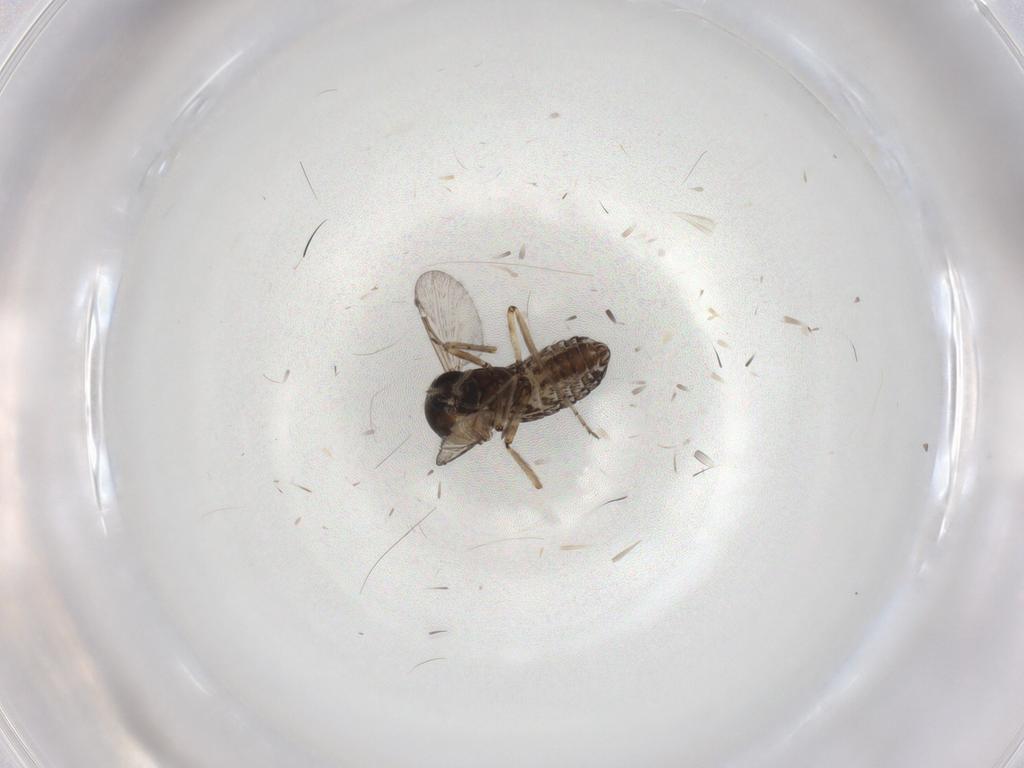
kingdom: Animalia
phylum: Arthropoda
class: Insecta
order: Diptera
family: Ceratopogonidae
